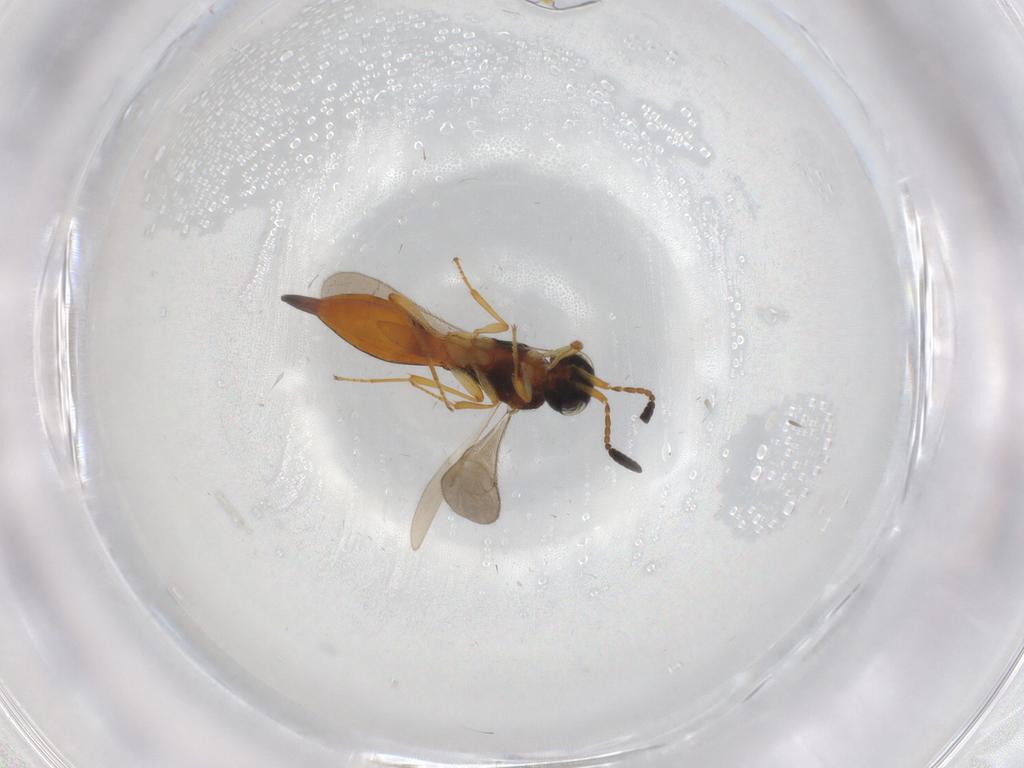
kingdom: Animalia
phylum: Arthropoda
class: Insecta
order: Hymenoptera
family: Scelionidae
